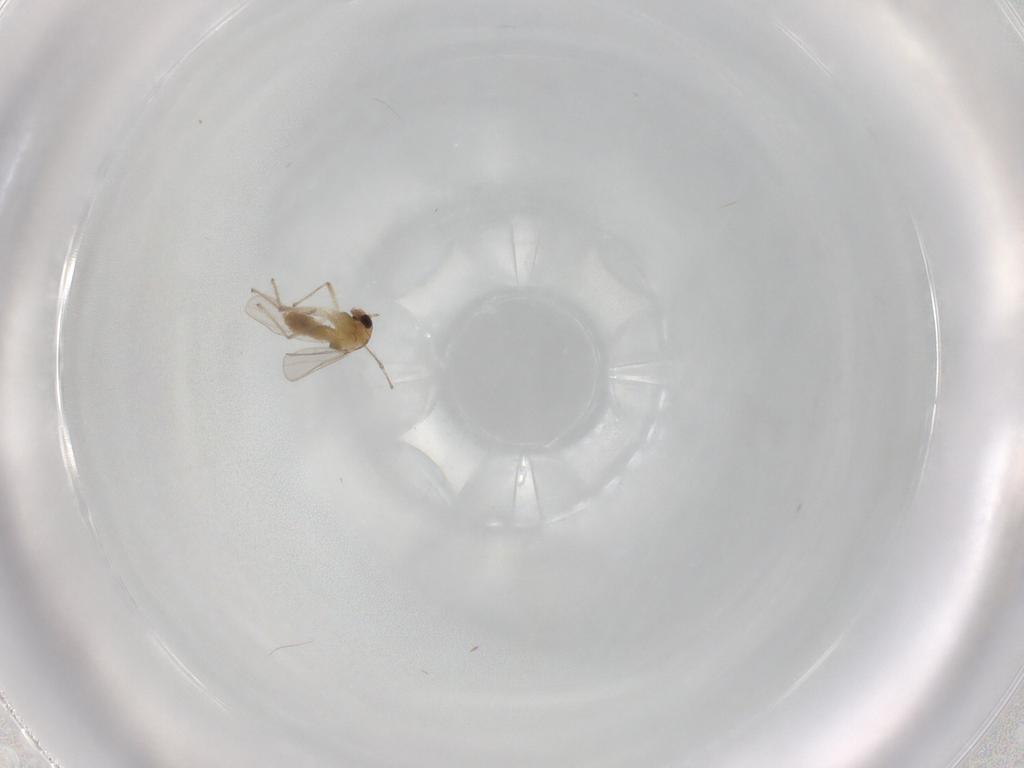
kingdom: Animalia
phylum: Arthropoda
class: Insecta
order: Diptera
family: Chironomidae
